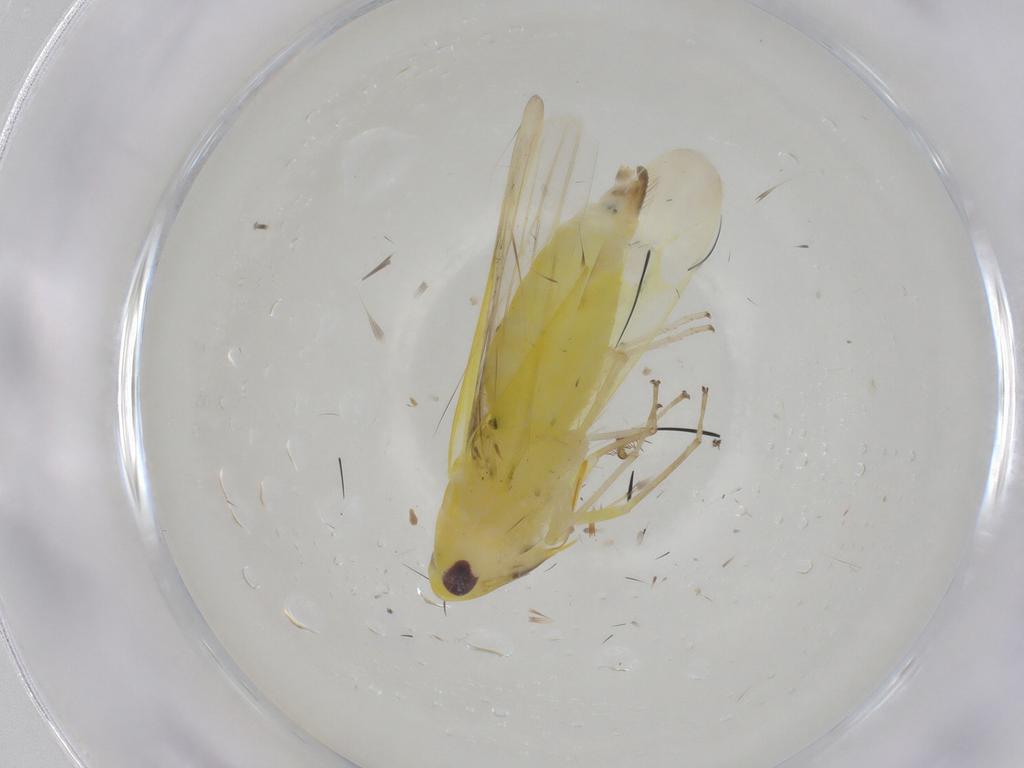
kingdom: Animalia
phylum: Arthropoda
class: Insecta
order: Hemiptera
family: Cicadellidae
